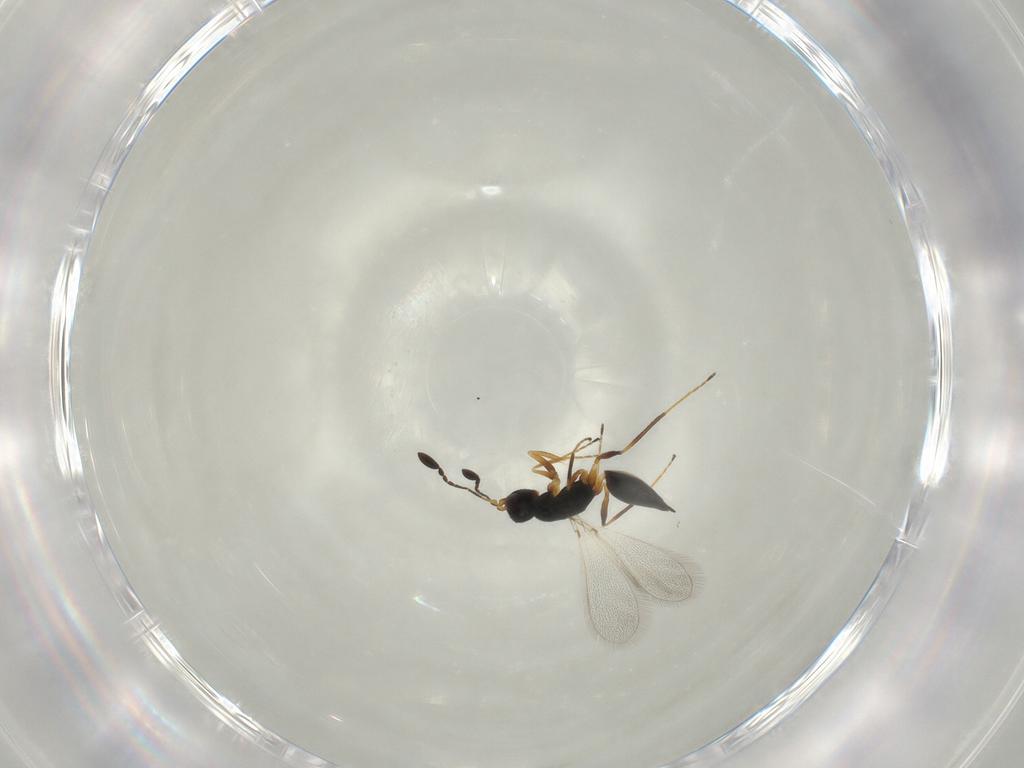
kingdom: Animalia
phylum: Arthropoda
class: Insecta
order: Hymenoptera
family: Mymaridae
